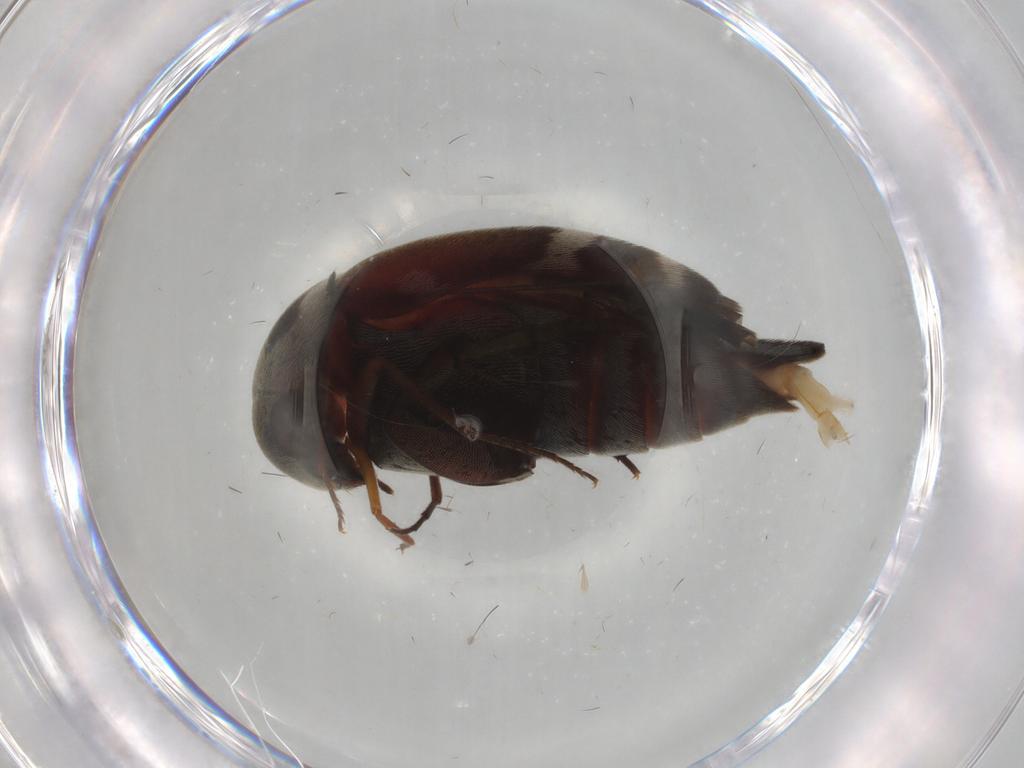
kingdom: Animalia
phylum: Arthropoda
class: Insecta
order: Orthoptera
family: Trigonidiidae
